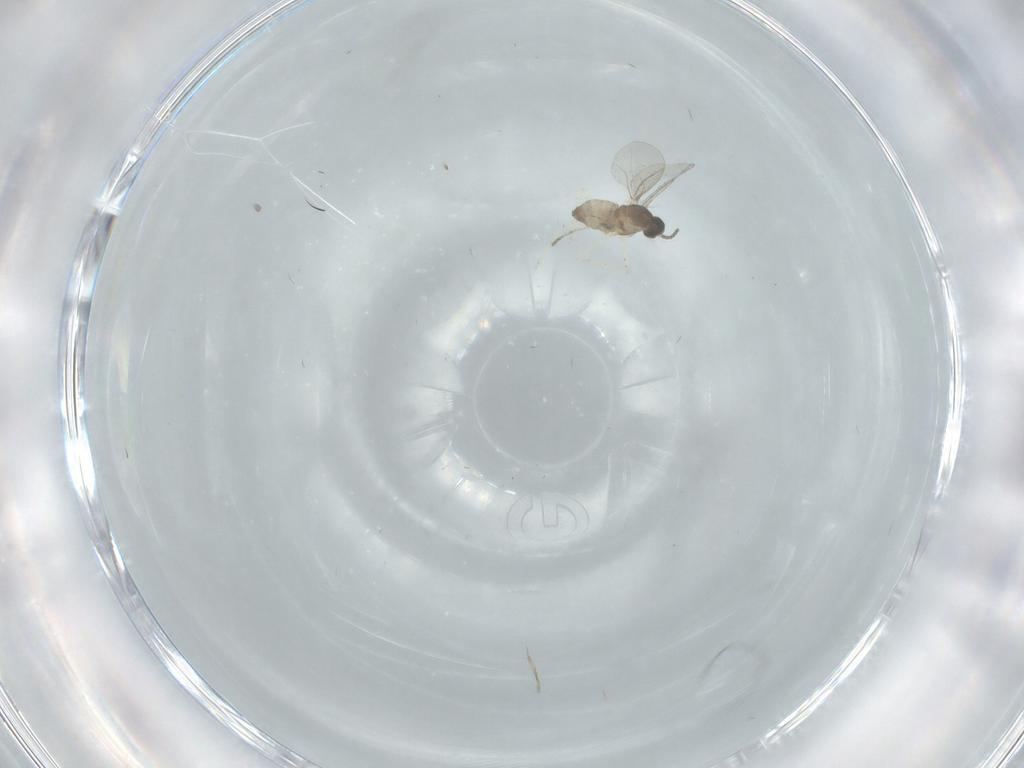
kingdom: Animalia
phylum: Arthropoda
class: Insecta
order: Diptera
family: Cecidomyiidae
